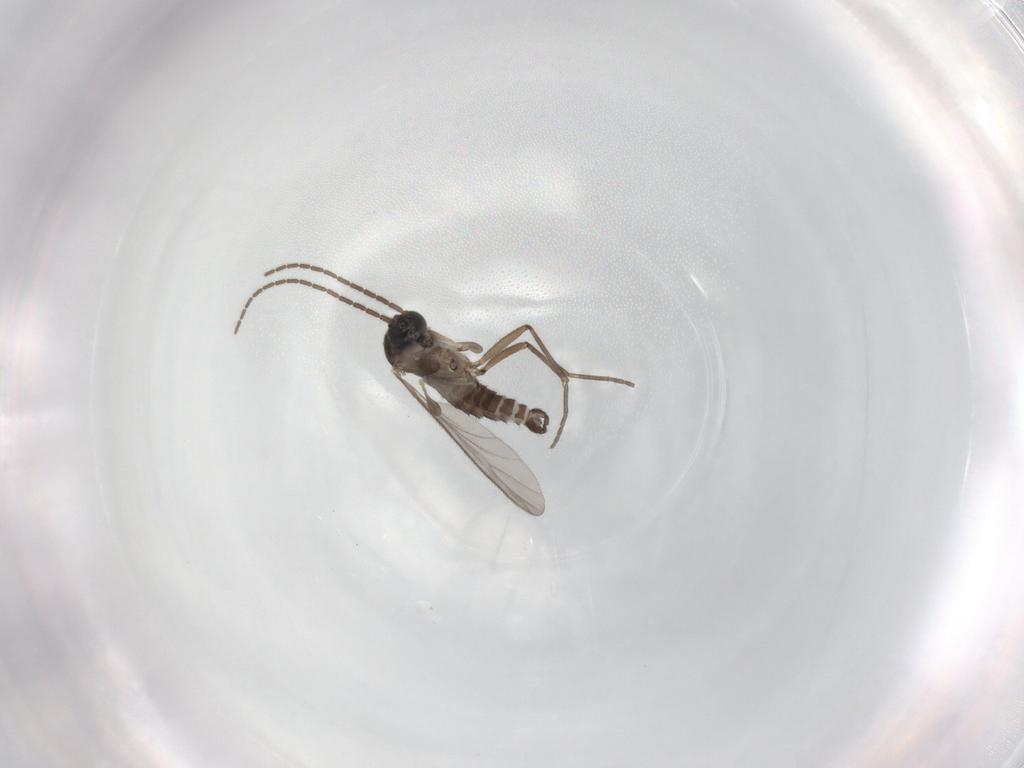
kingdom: Animalia
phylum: Arthropoda
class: Insecta
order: Diptera
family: Sciaridae
